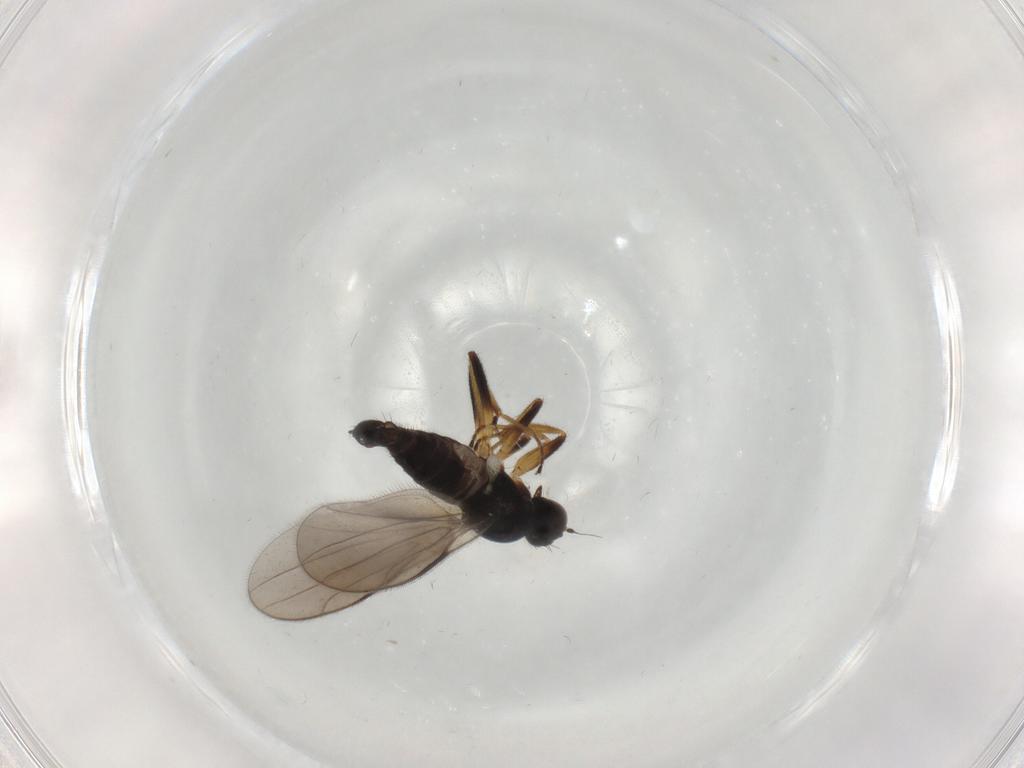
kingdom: Animalia
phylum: Arthropoda
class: Insecta
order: Diptera
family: Hybotidae
